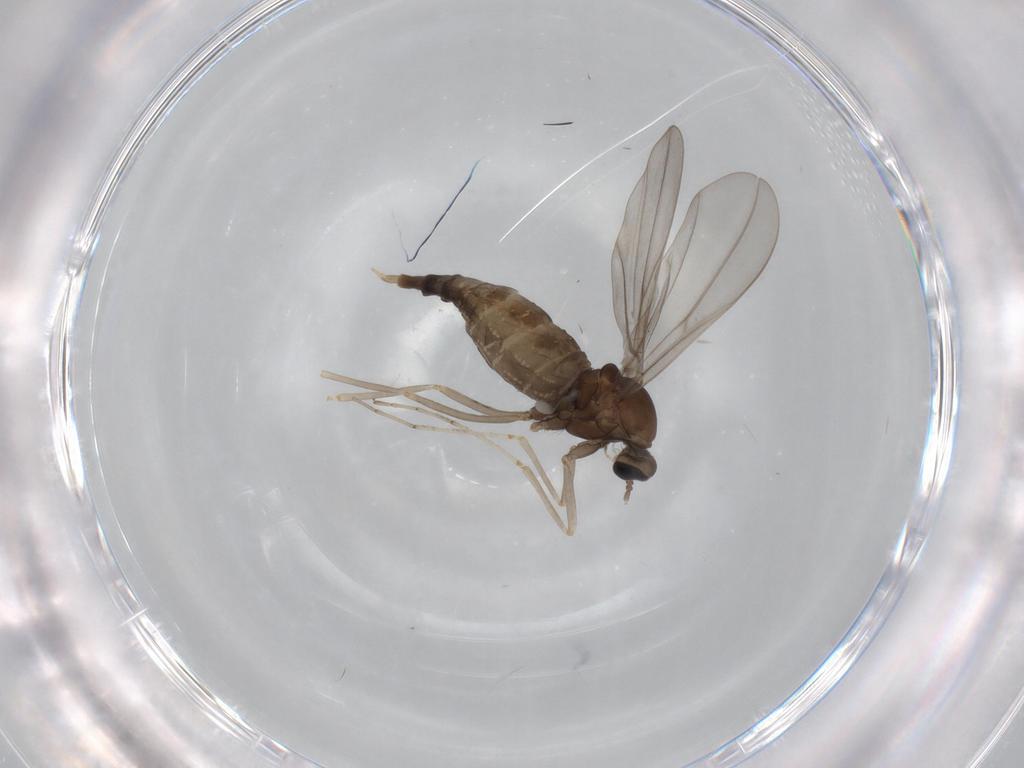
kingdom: Animalia
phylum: Arthropoda
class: Insecta
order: Diptera
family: Cecidomyiidae
